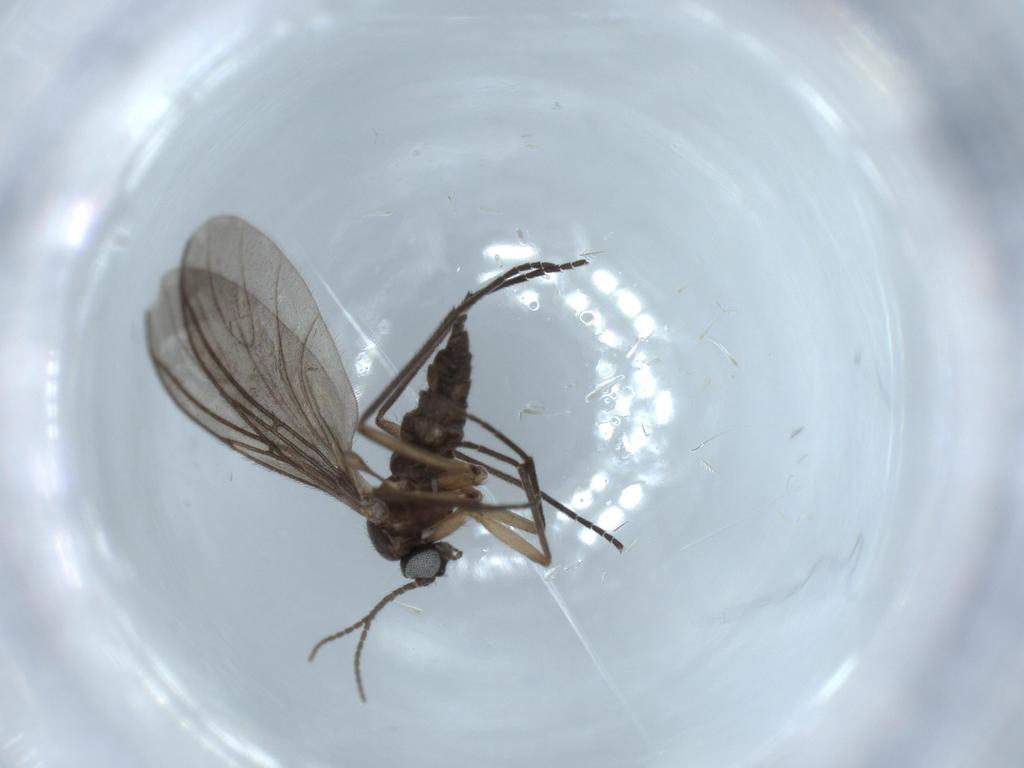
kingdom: Animalia
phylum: Arthropoda
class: Insecta
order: Diptera
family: Sciaridae
